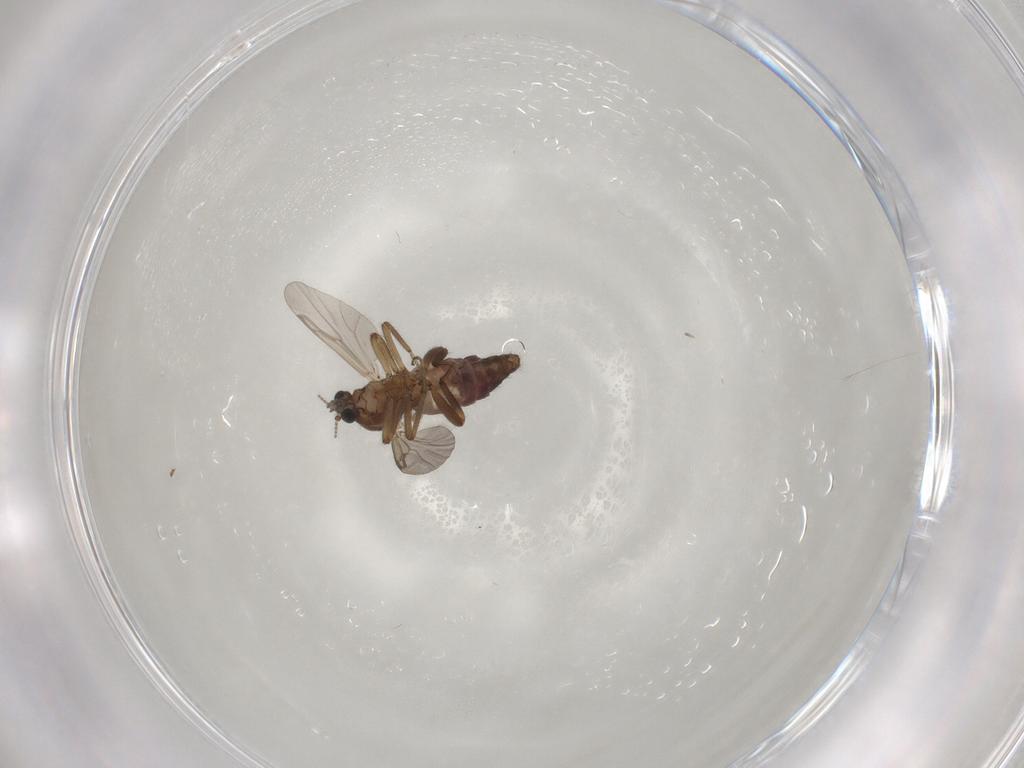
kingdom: Animalia
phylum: Arthropoda
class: Insecta
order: Diptera
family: Ceratopogonidae
